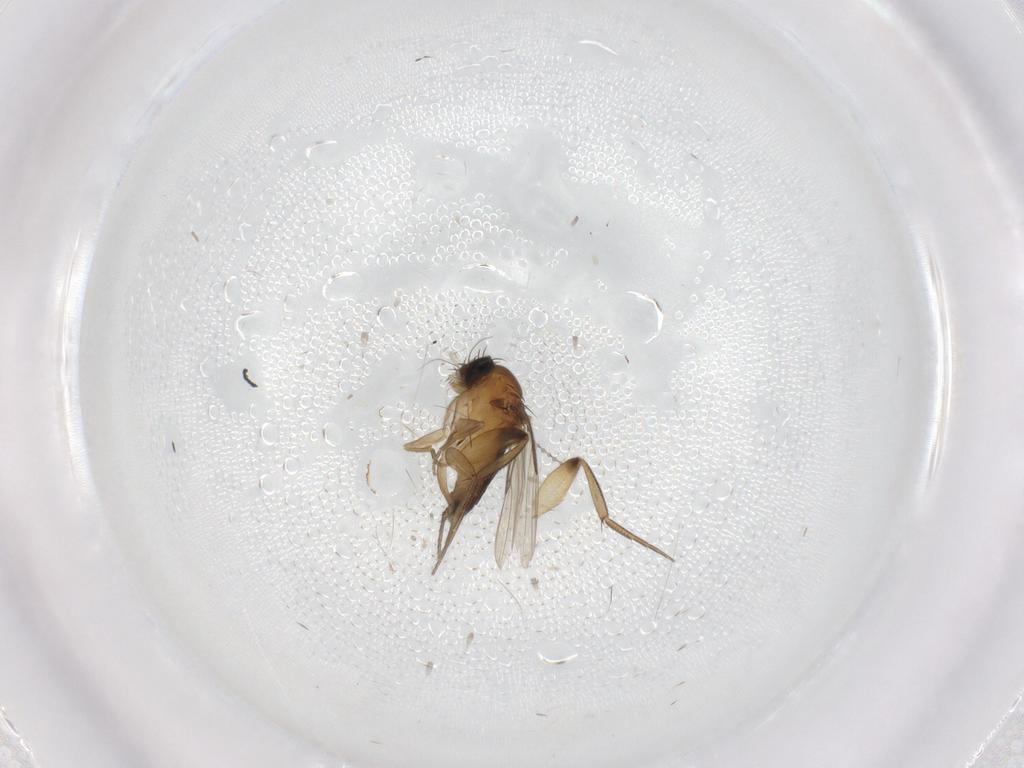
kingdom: Animalia
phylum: Arthropoda
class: Insecta
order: Diptera
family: Phoridae
